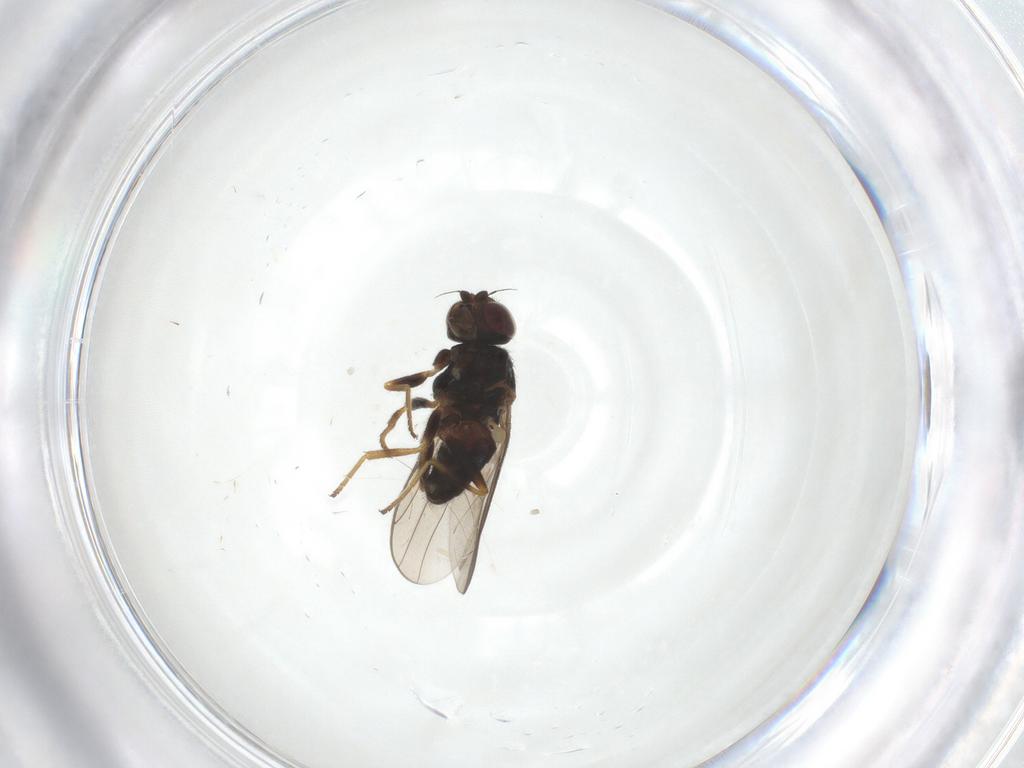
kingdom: Animalia
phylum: Arthropoda
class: Insecta
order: Diptera
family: Chloropidae
